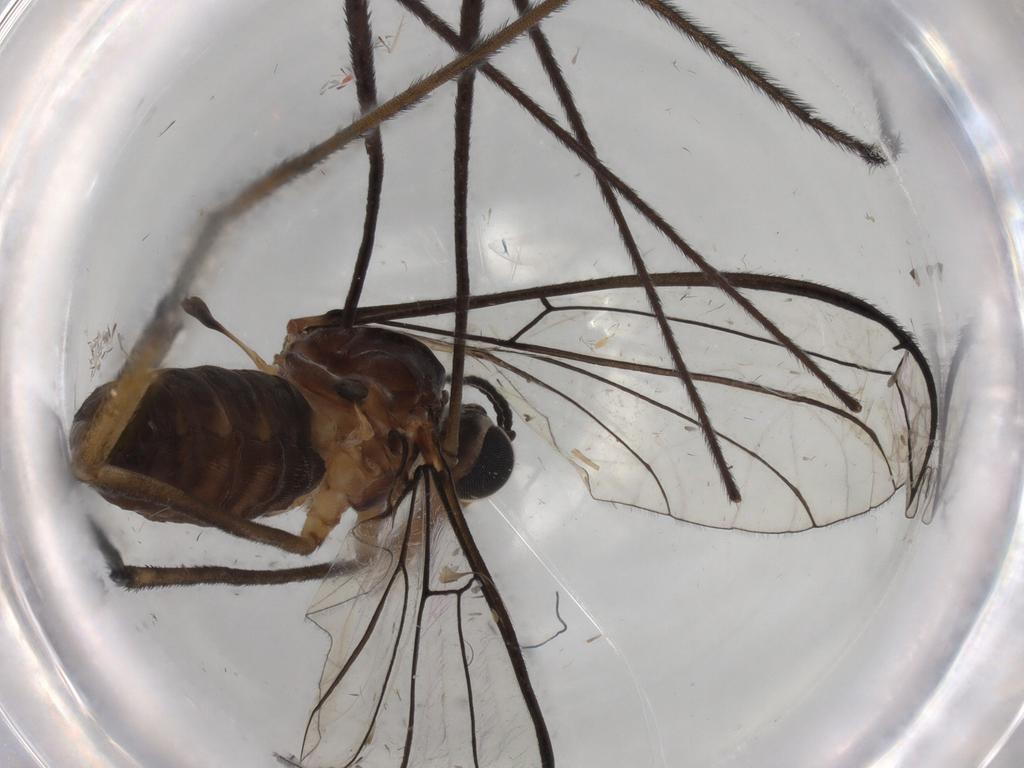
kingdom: Animalia
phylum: Arthropoda
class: Insecta
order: Diptera
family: Blephariceridae
